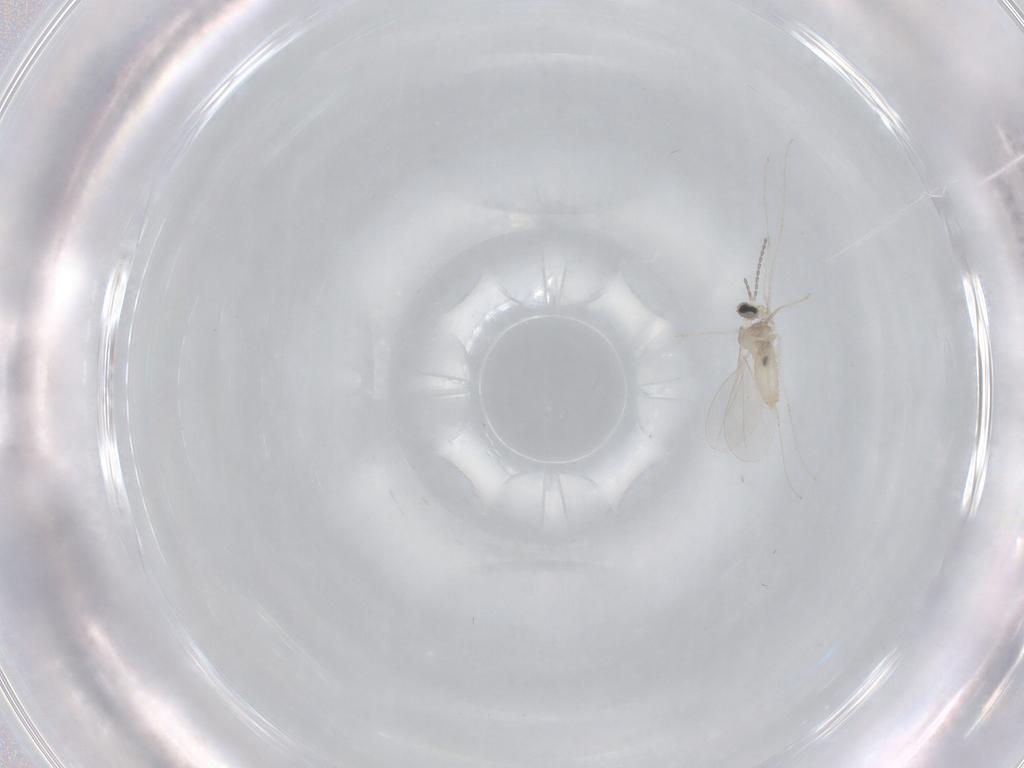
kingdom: Animalia
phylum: Arthropoda
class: Insecta
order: Diptera
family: Cecidomyiidae
